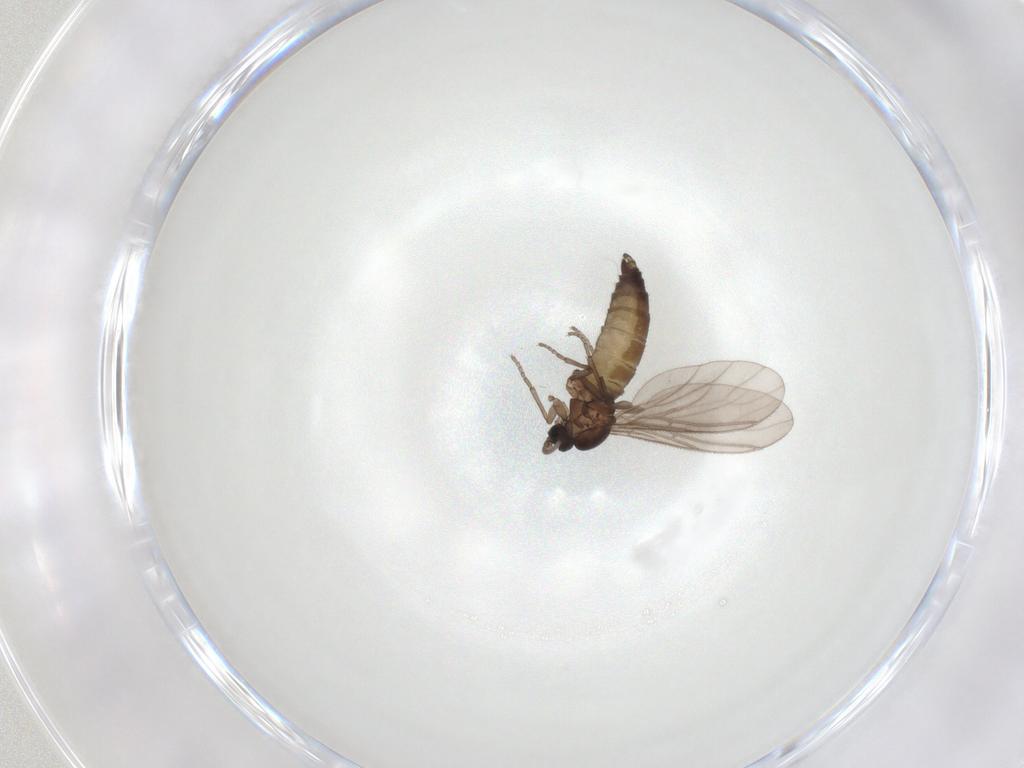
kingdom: Animalia
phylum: Arthropoda
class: Insecta
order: Diptera
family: Sciaridae
